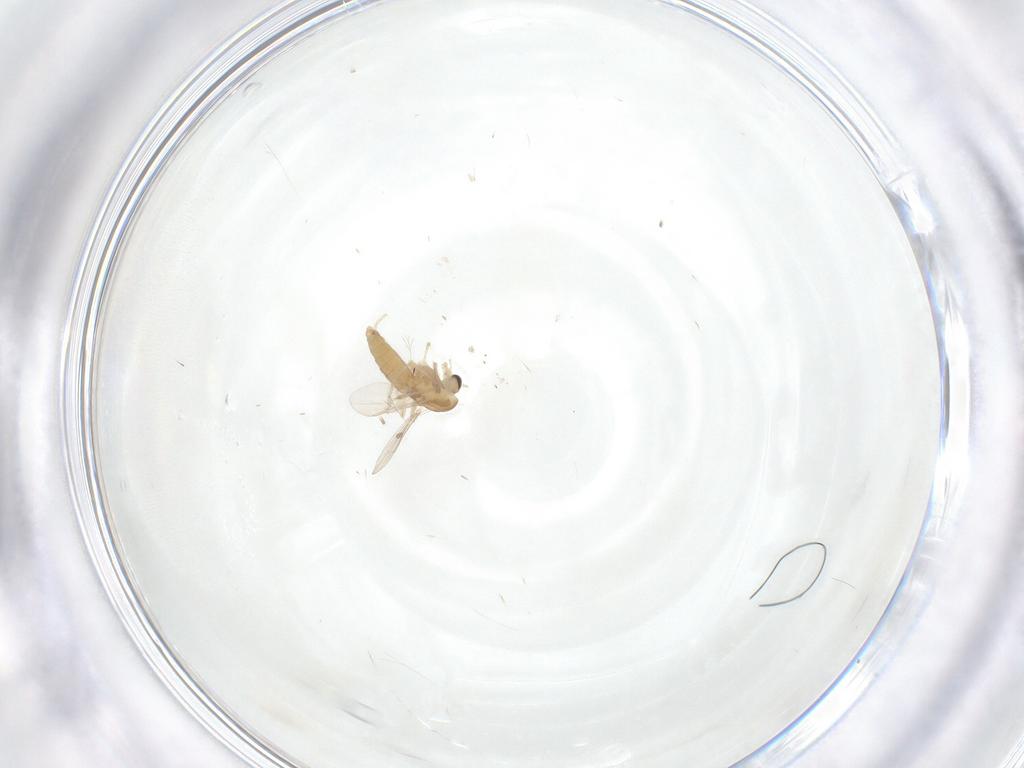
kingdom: Animalia
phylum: Arthropoda
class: Insecta
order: Diptera
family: Chironomidae
